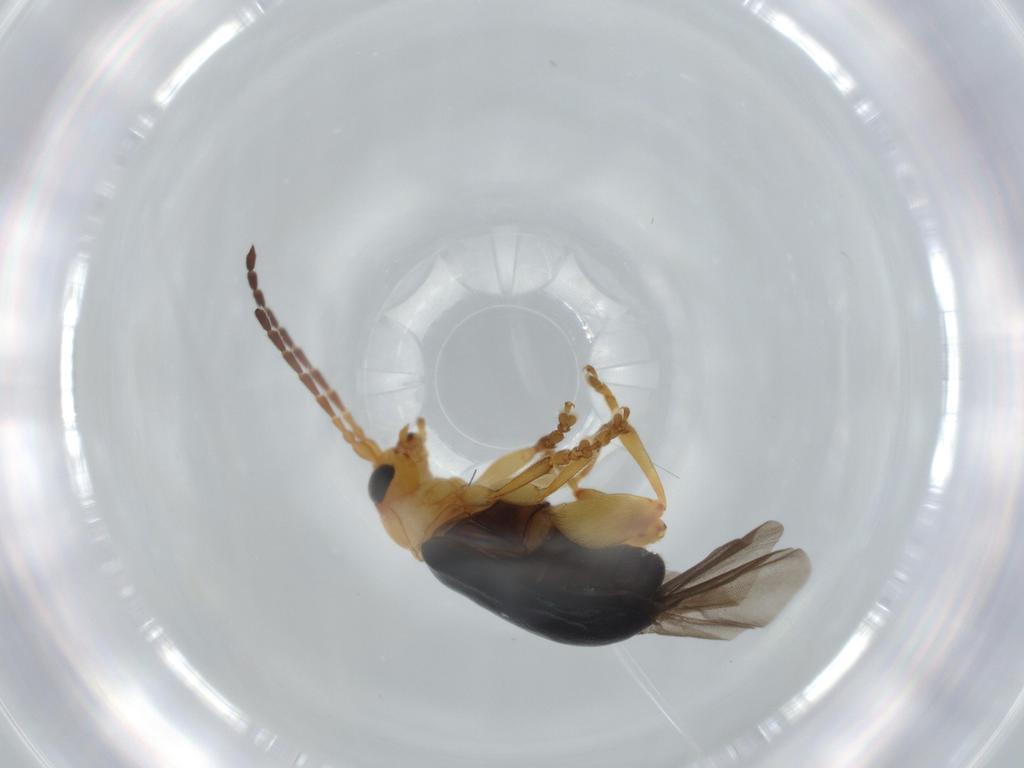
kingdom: Animalia
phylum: Arthropoda
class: Insecta
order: Coleoptera
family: Chrysomelidae
